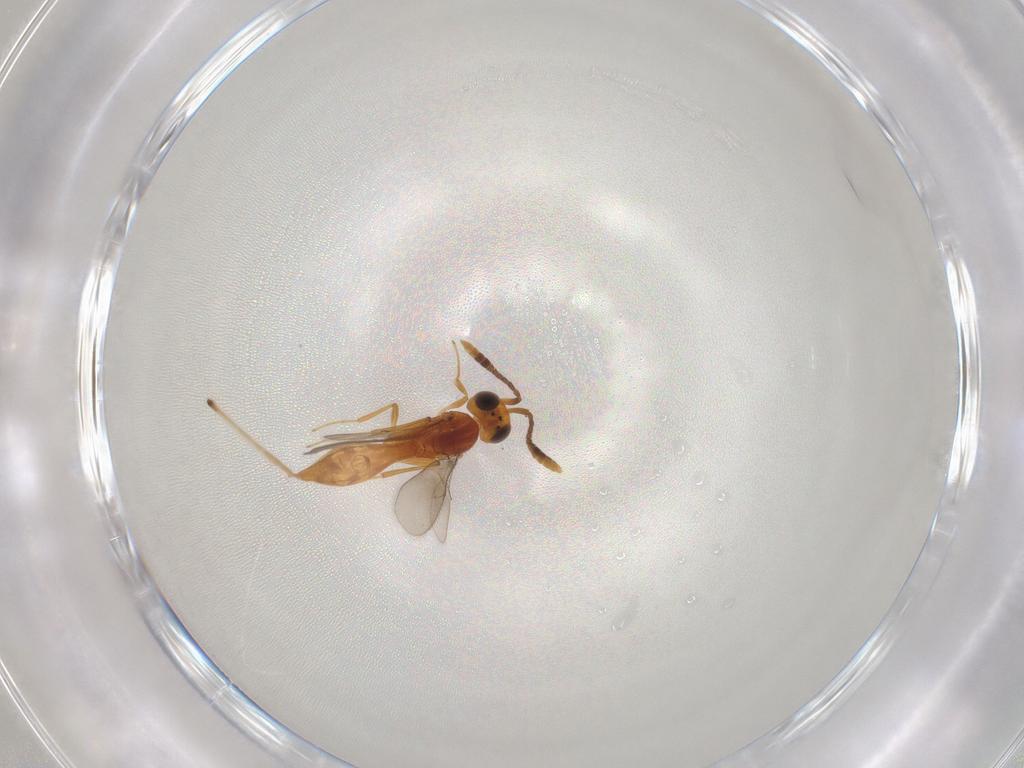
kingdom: Animalia
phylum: Arthropoda
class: Insecta
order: Hymenoptera
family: Scelionidae
